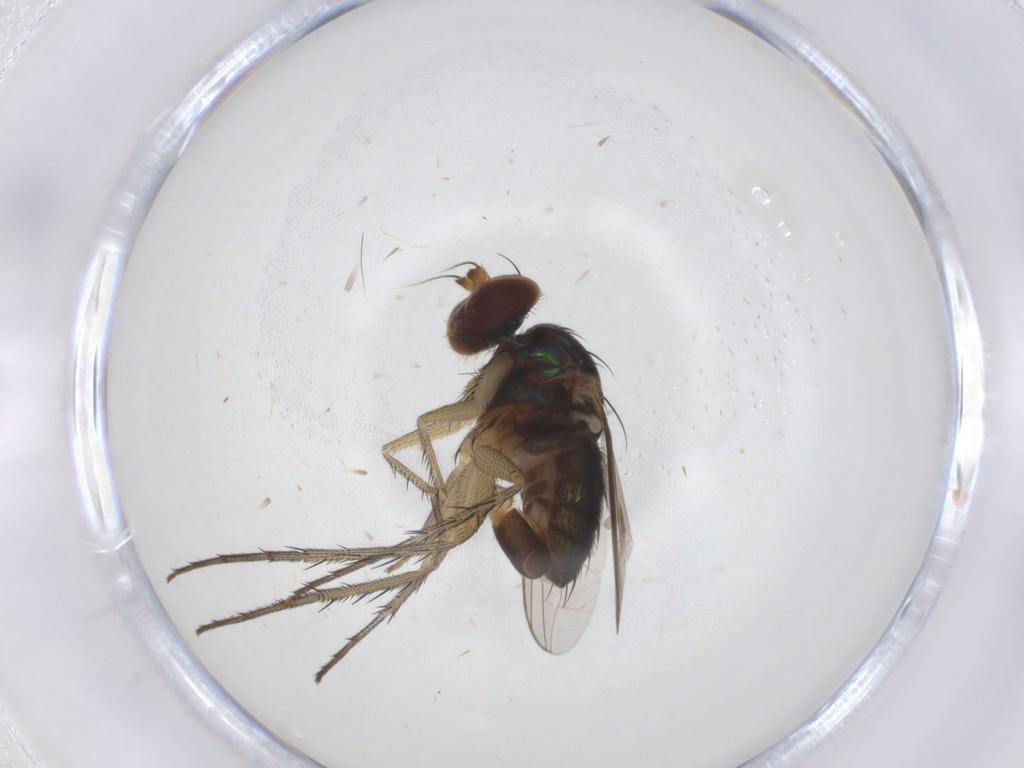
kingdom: Animalia
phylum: Arthropoda
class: Insecta
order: Diptera
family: Dolichopodidae
